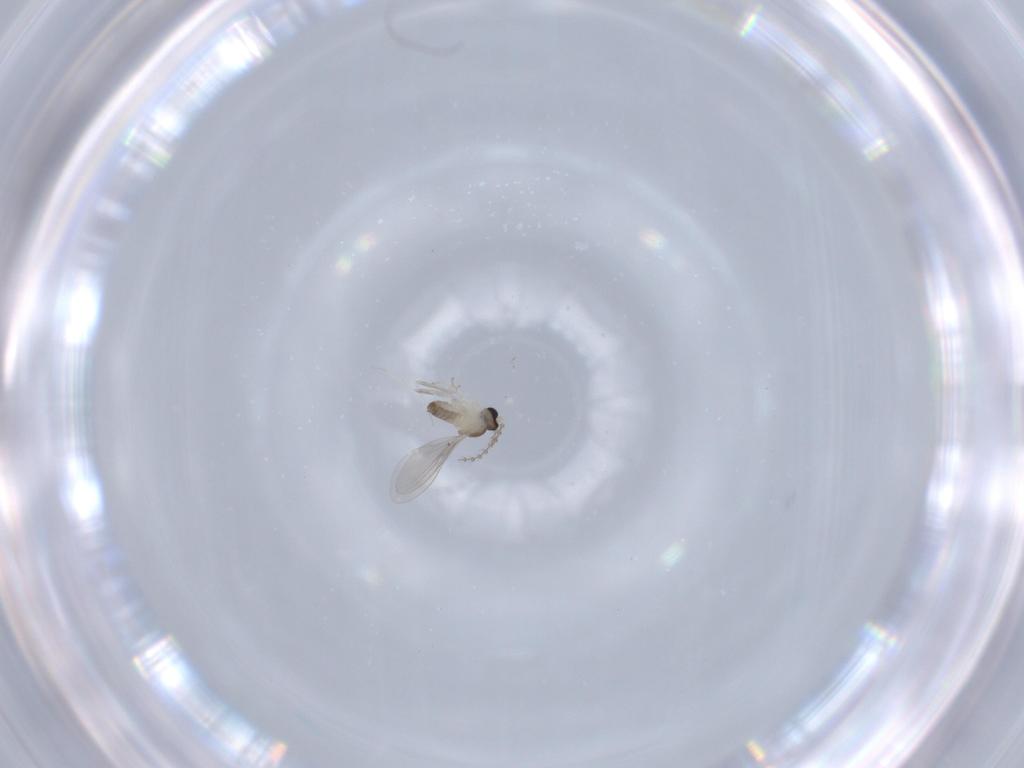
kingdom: Animalia
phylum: Arthropoda
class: Insecta
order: Diptera
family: Cecidomyiidae
